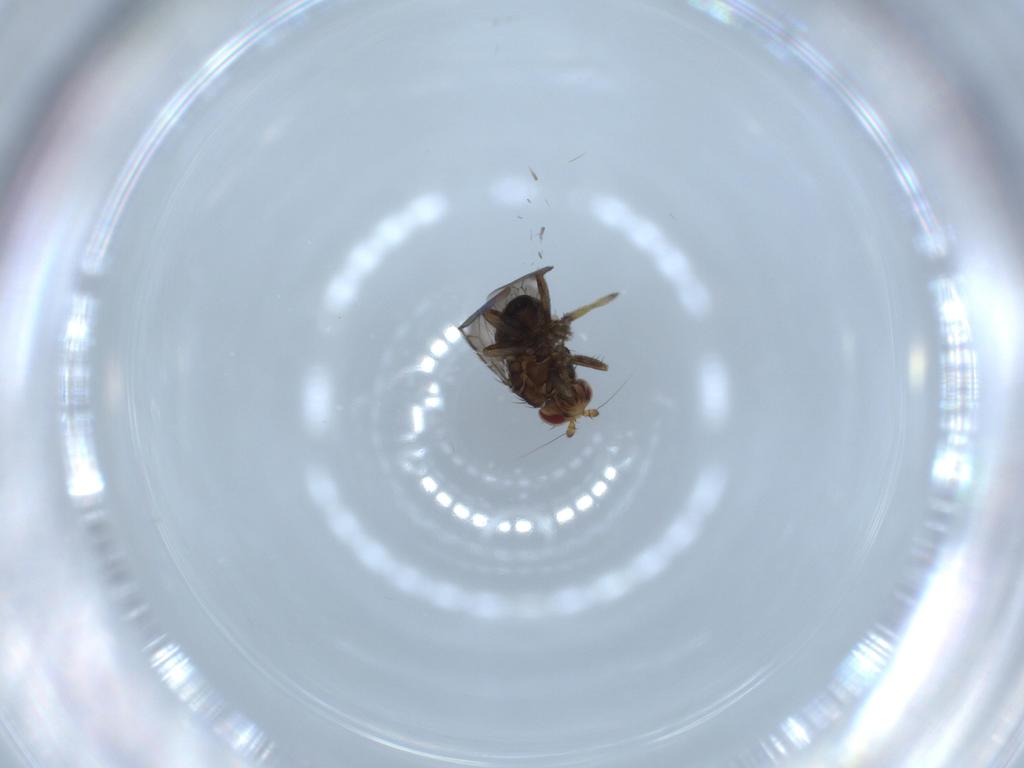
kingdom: Animalia
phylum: Arthropoda
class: Insecta
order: Diptera
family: Sphaeroceridae
